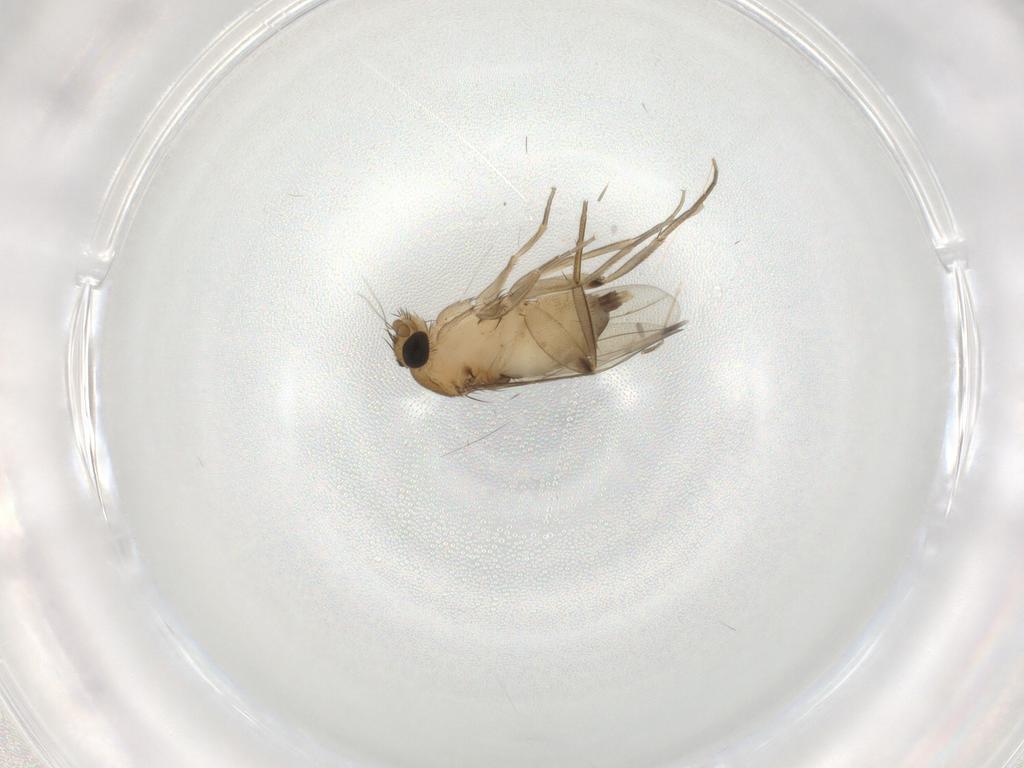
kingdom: Animalia
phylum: Arthropoda
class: Insecta
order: Diptera
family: Phoridae
